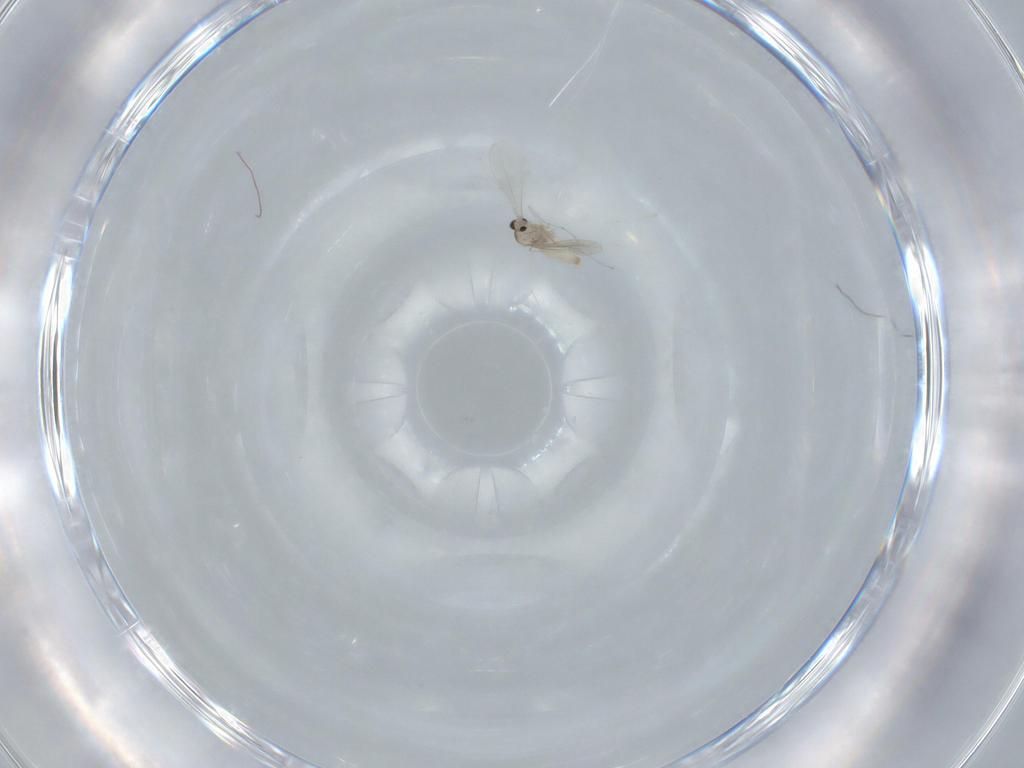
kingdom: Animalia
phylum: Arthropoda
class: Insecta
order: Diptera
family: Cecidomyiidae
